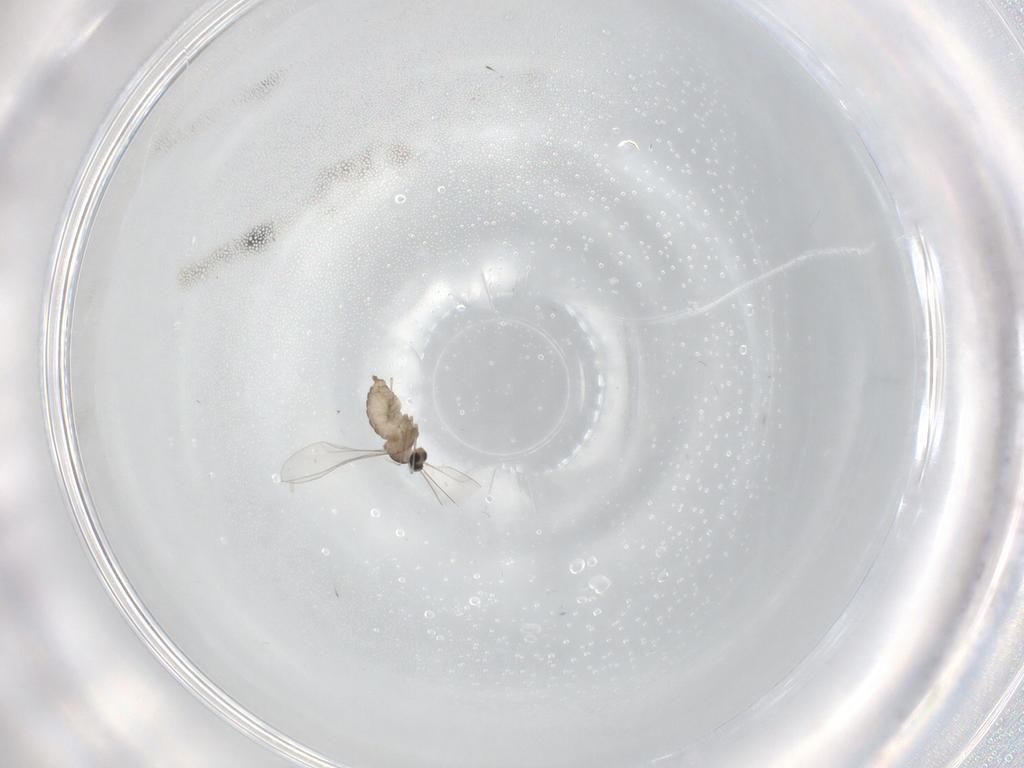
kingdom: Animalia
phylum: Arthropoda
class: Insecta
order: Diptera
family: Cecidomyiidae
